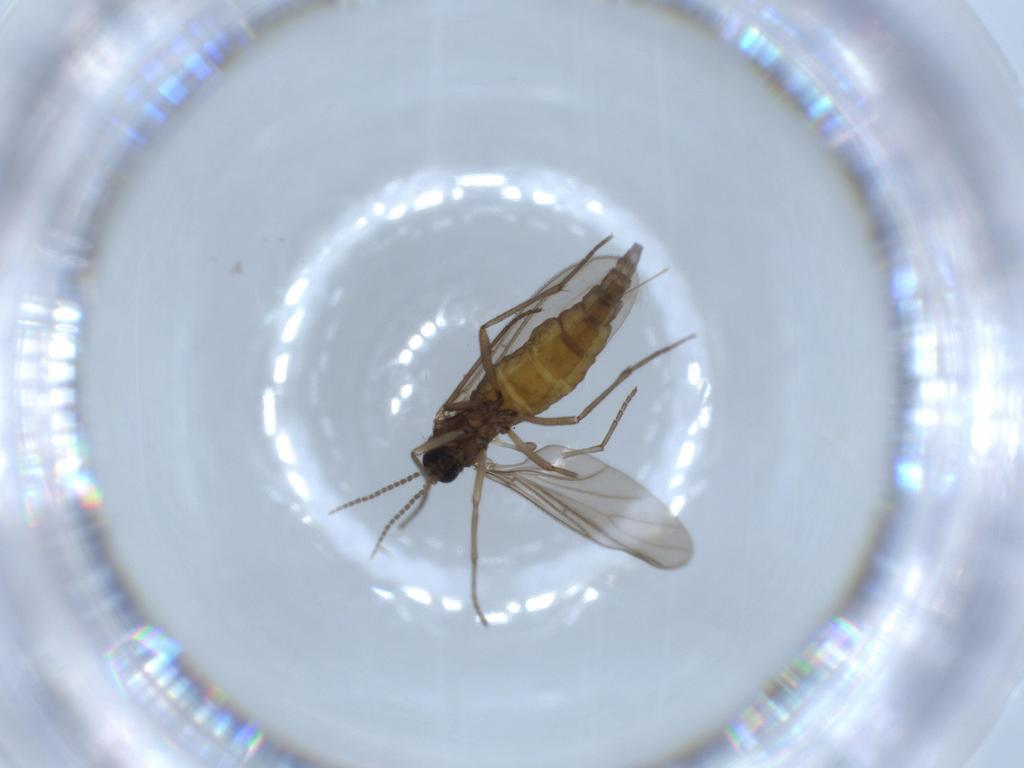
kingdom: Animalia
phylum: Arthropoda
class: Insecta
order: Diptera
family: Sciaridae
